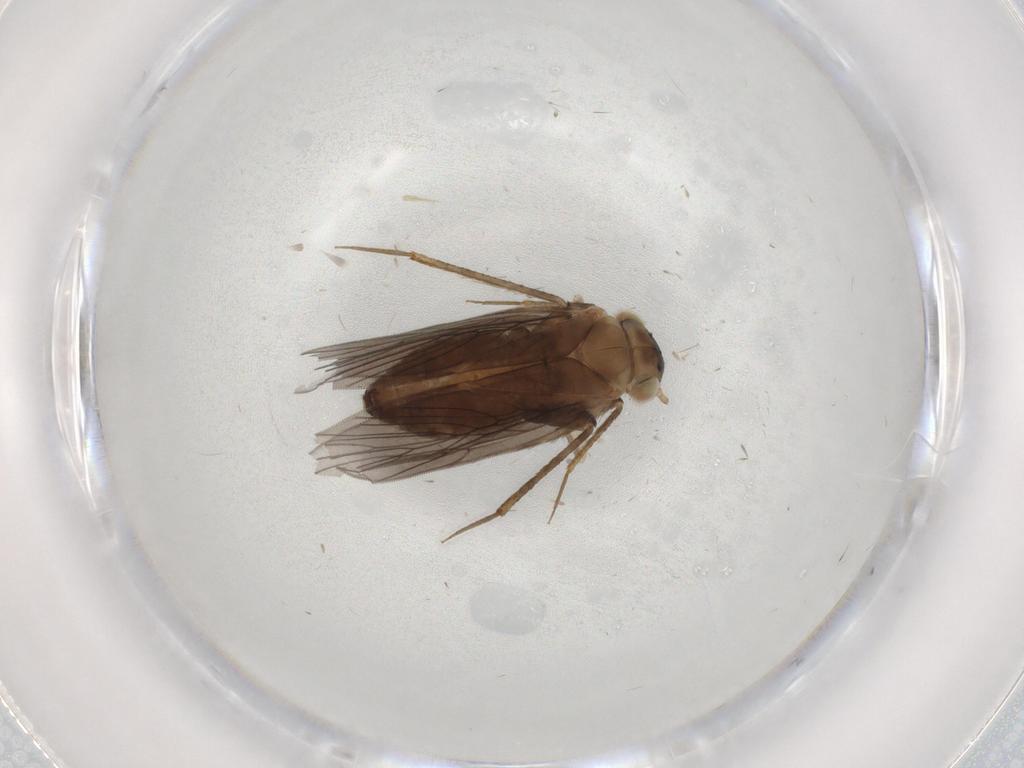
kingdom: Animalia
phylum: Arthropoda
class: Insecta
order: Psocodea
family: Lepidopsocidae
